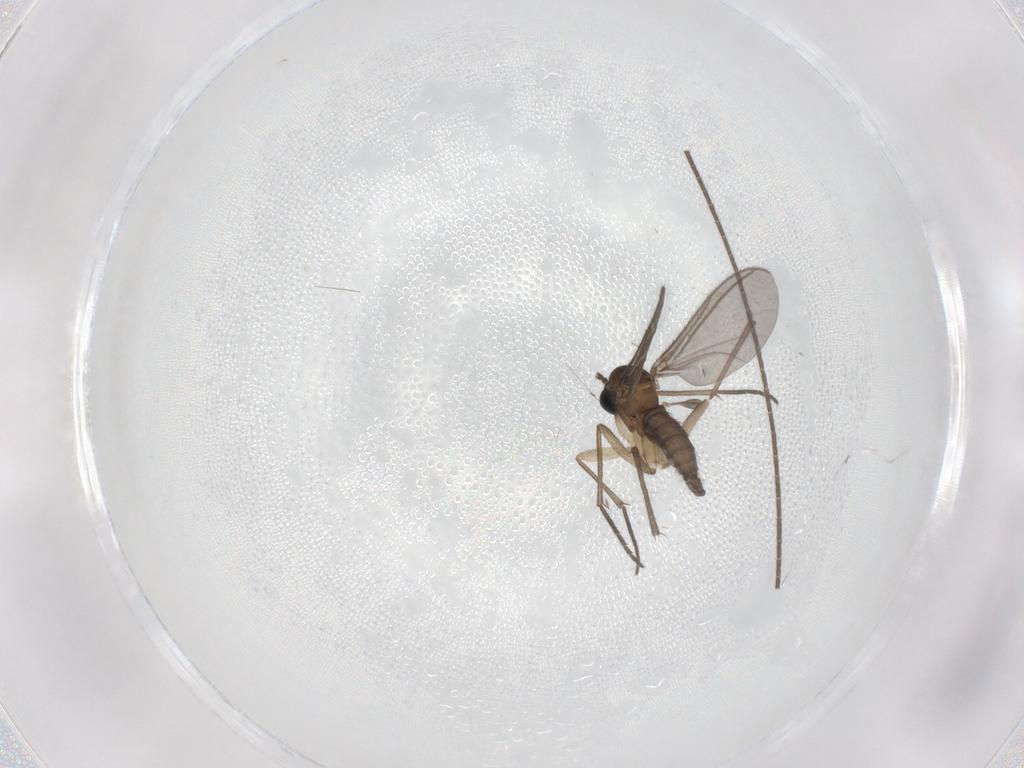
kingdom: Animalia
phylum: Arthropoda
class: Insecta
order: Diptera
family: Sciaridae
